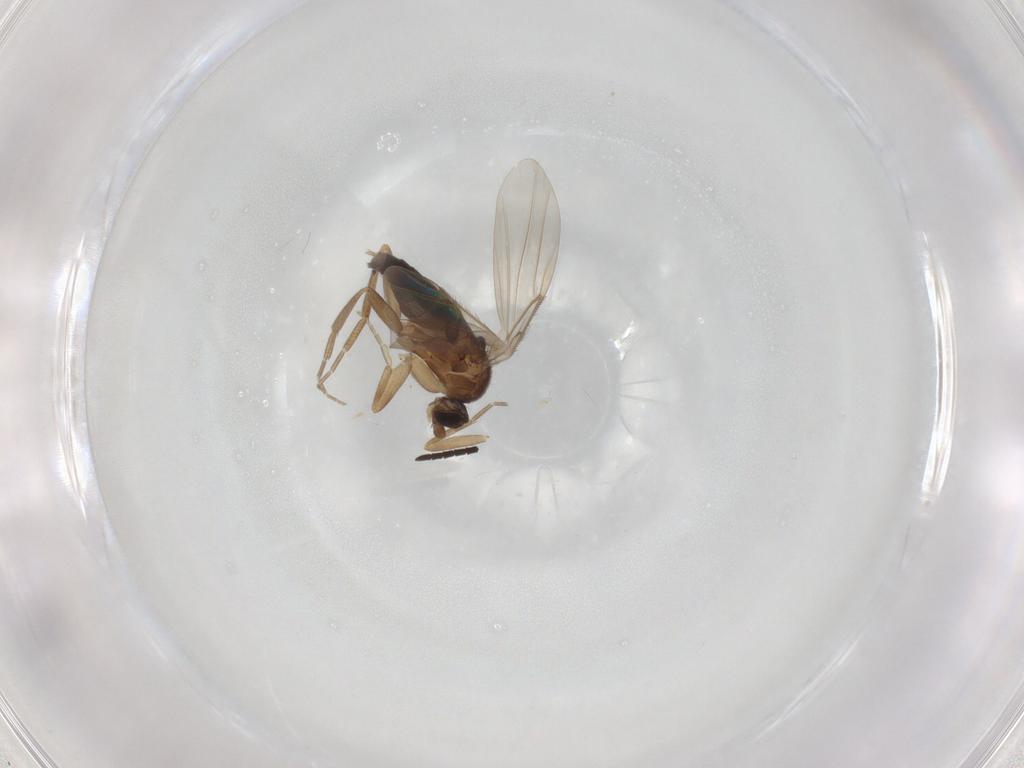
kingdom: Animalia
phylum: Arthropoda
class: Insecta
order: Diptera
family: Phoridae
